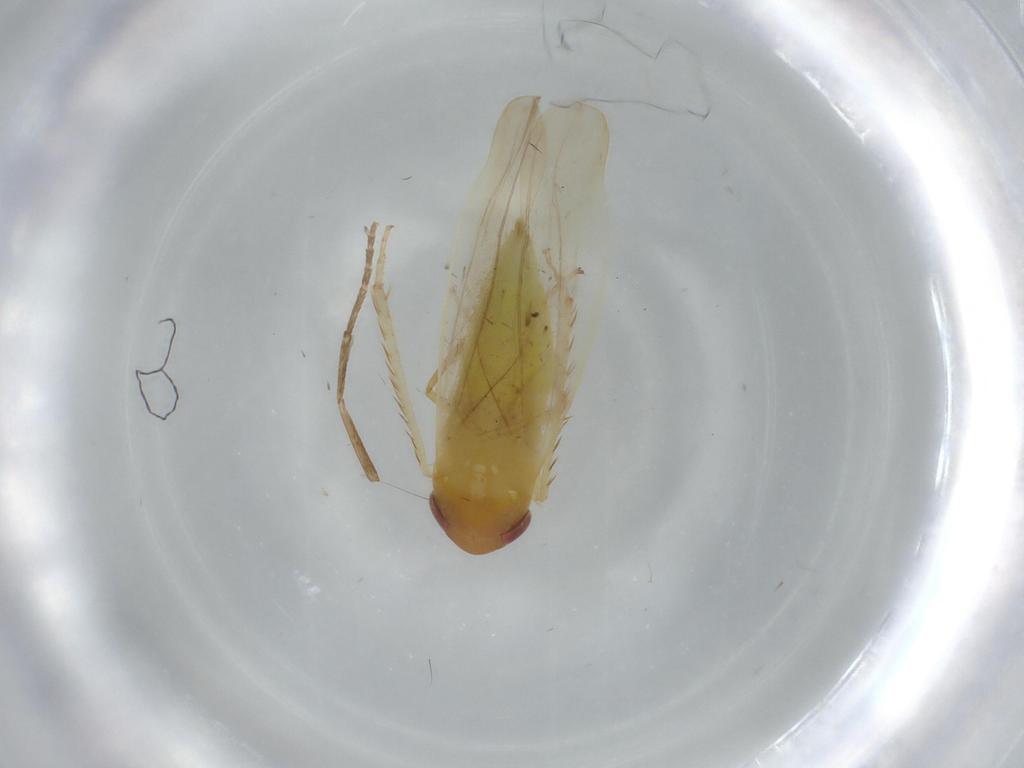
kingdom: Animalia
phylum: Arthropoda
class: Insecta
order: Hemiptera
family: Cicadellidae
